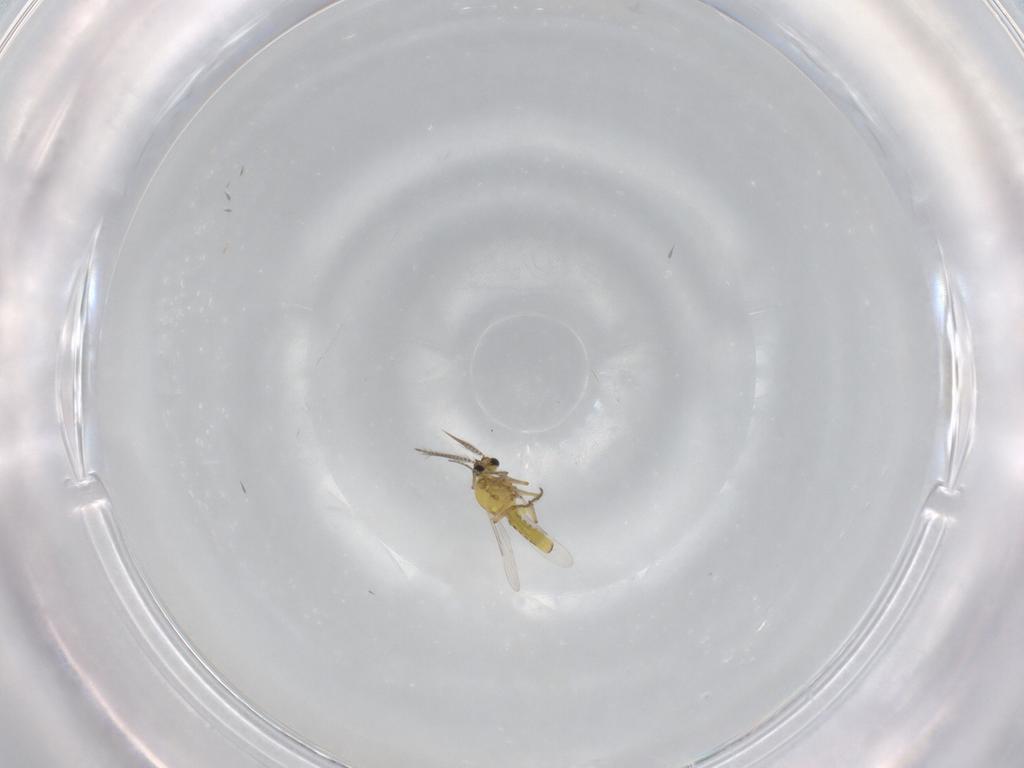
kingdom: Animalia
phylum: Arthropoda
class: Insecta
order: Diptera
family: Ceratopogonidae
